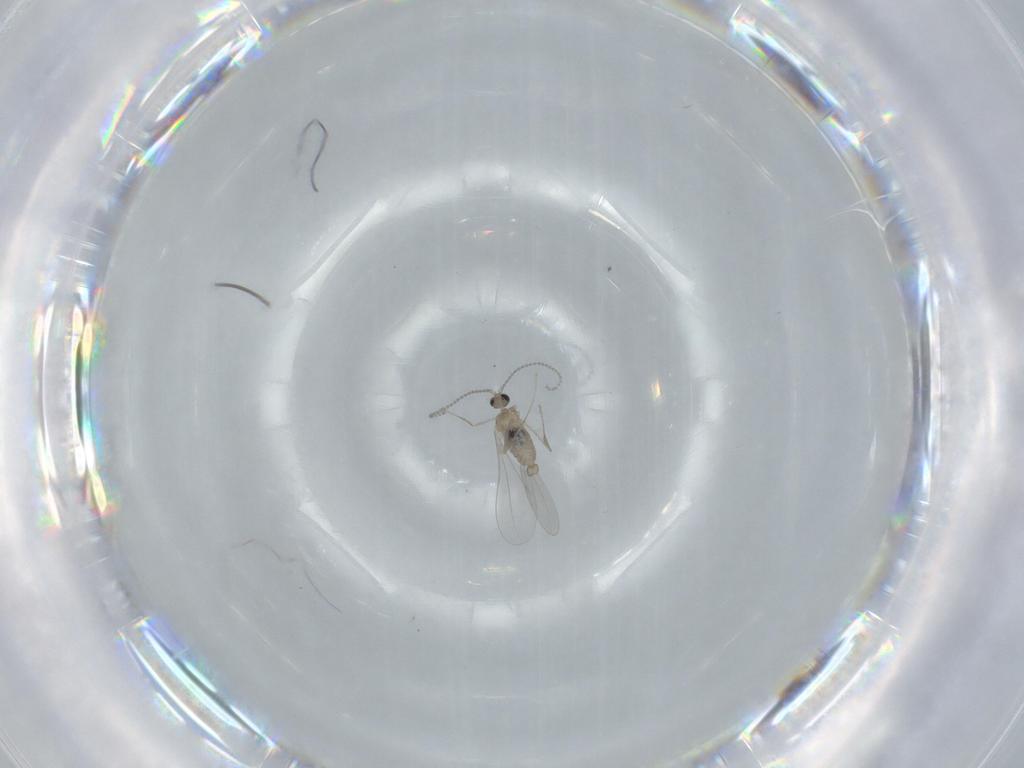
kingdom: Animalia
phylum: Arthropoda
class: Insecta
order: Diptera
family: Cecidomyiidae
